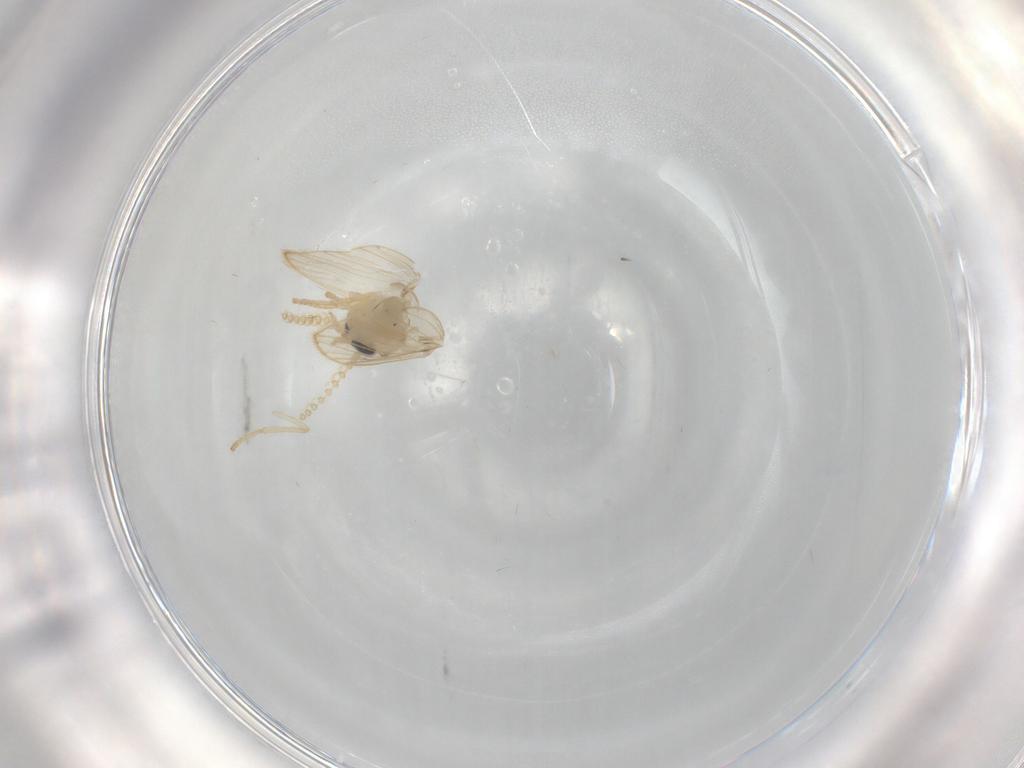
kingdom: Animalia
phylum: Arthropoda
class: Insecta
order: Diptera
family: Psychodidae
